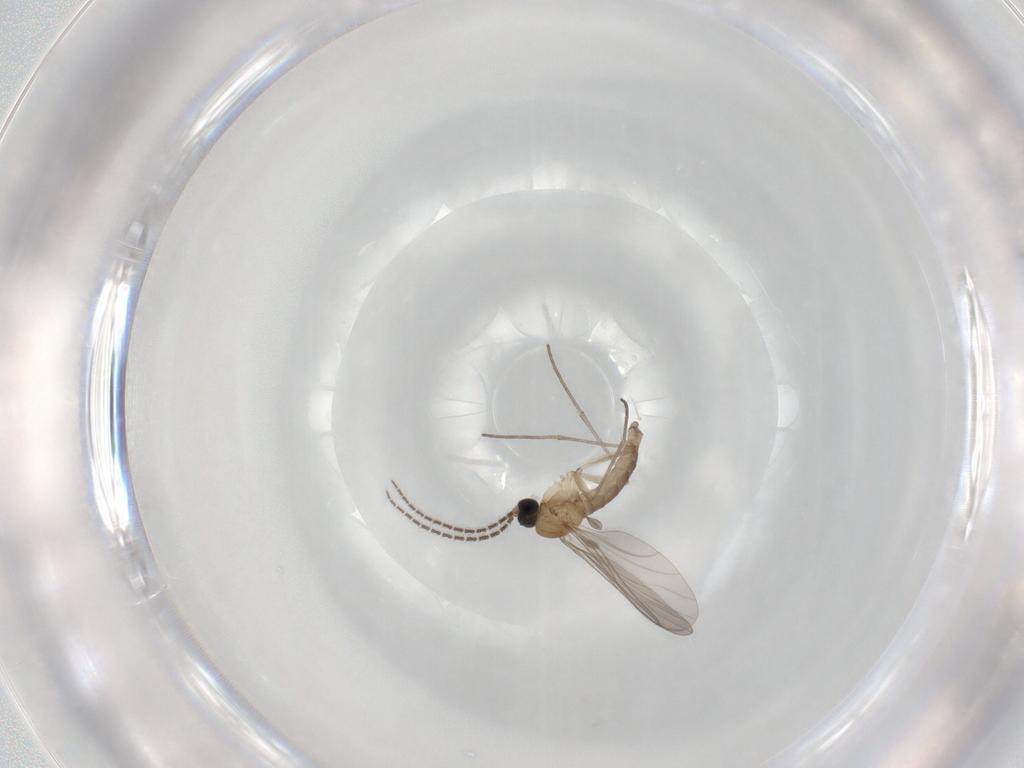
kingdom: Animalia
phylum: Arthropoda
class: Insecta
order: Diptera
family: Sciaridae
